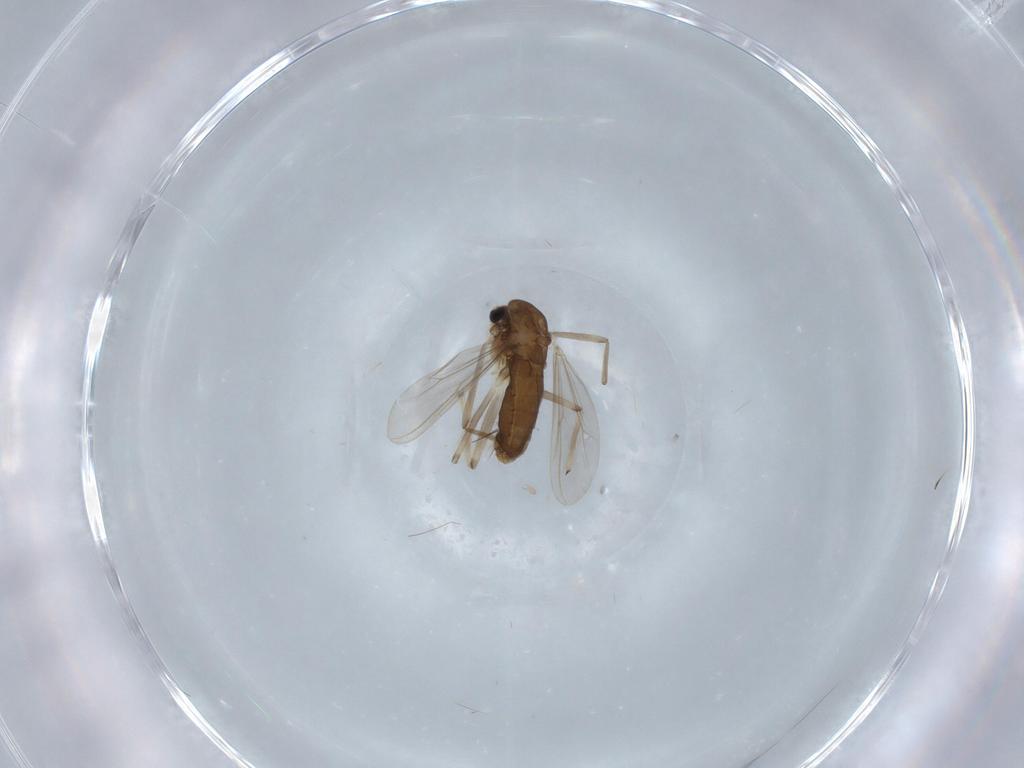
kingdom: Animalia
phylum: Arthropoda
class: Insecta
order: Diptera
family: Chironomidae
